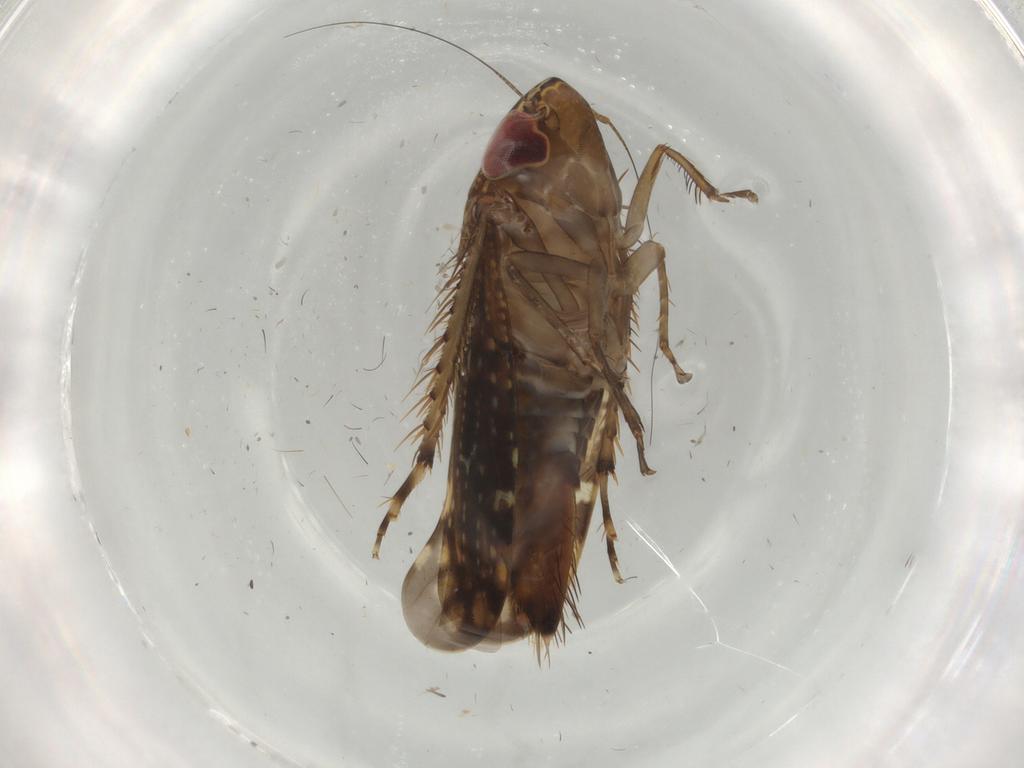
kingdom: Animalia
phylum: Arthropoda
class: Insecta
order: Hemiptera
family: Cicadellidae
